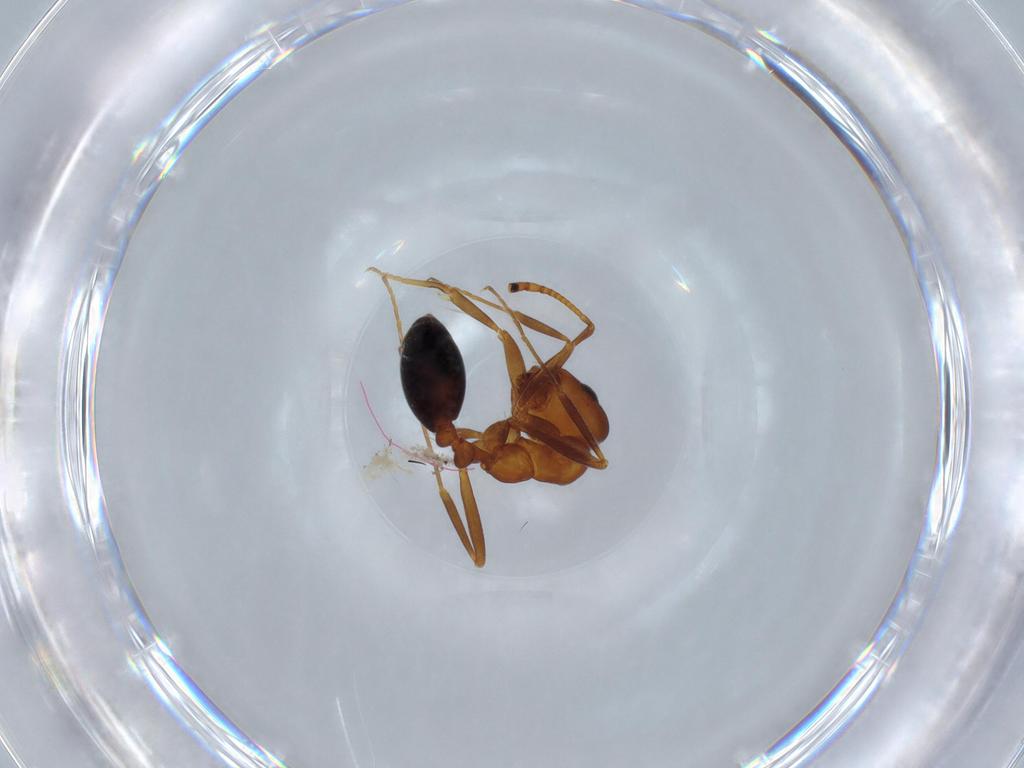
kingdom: Animalia
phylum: Arthropoda
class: Insecta
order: Hymenoptera
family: Formicidae
